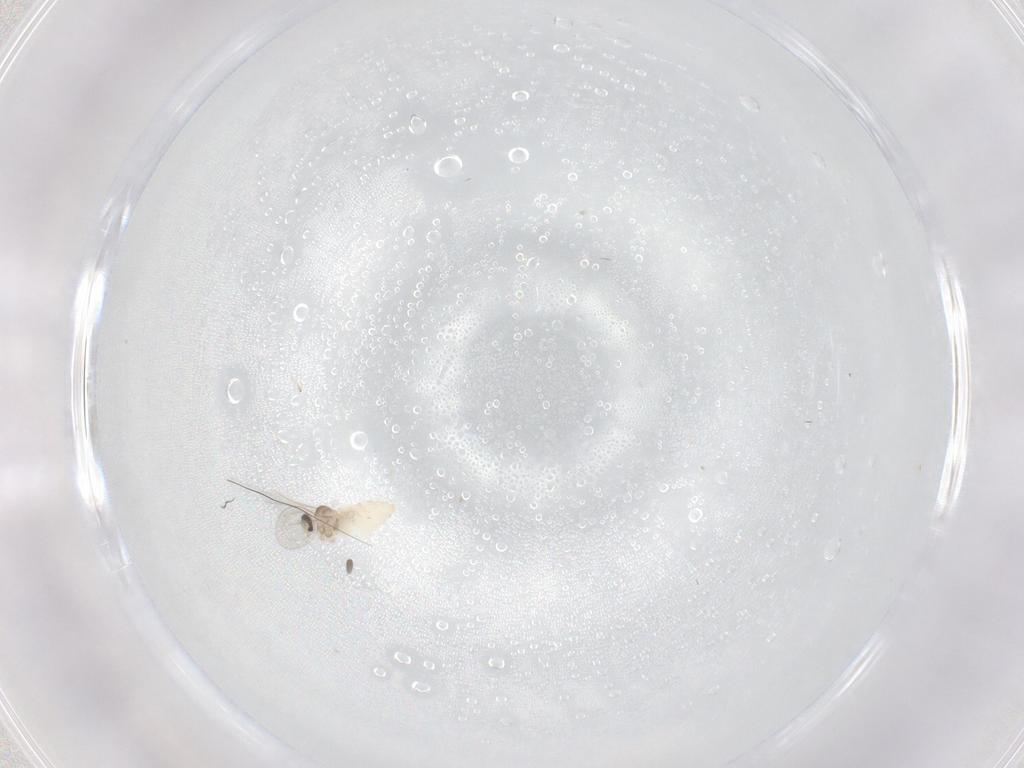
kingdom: Animalia
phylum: Arthropoda
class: Insecta
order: Diptera
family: Cecidomyiidae
